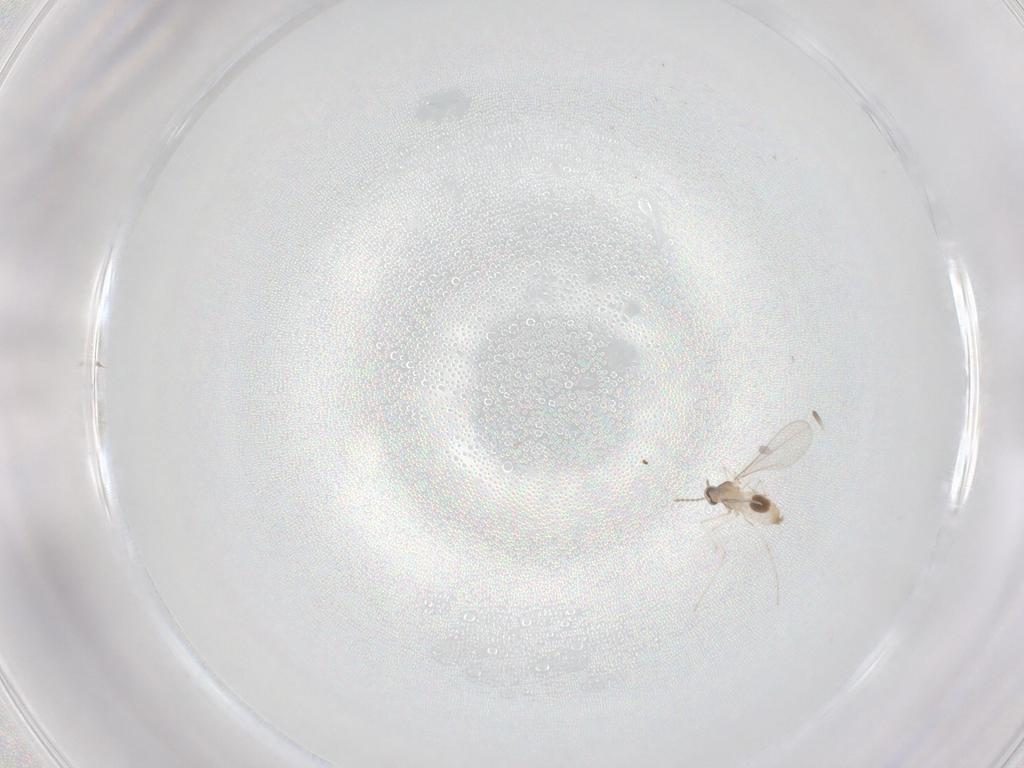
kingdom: Animalia
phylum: Arthropoda
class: Insecta
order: Diptera
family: Cecidomyiidae
